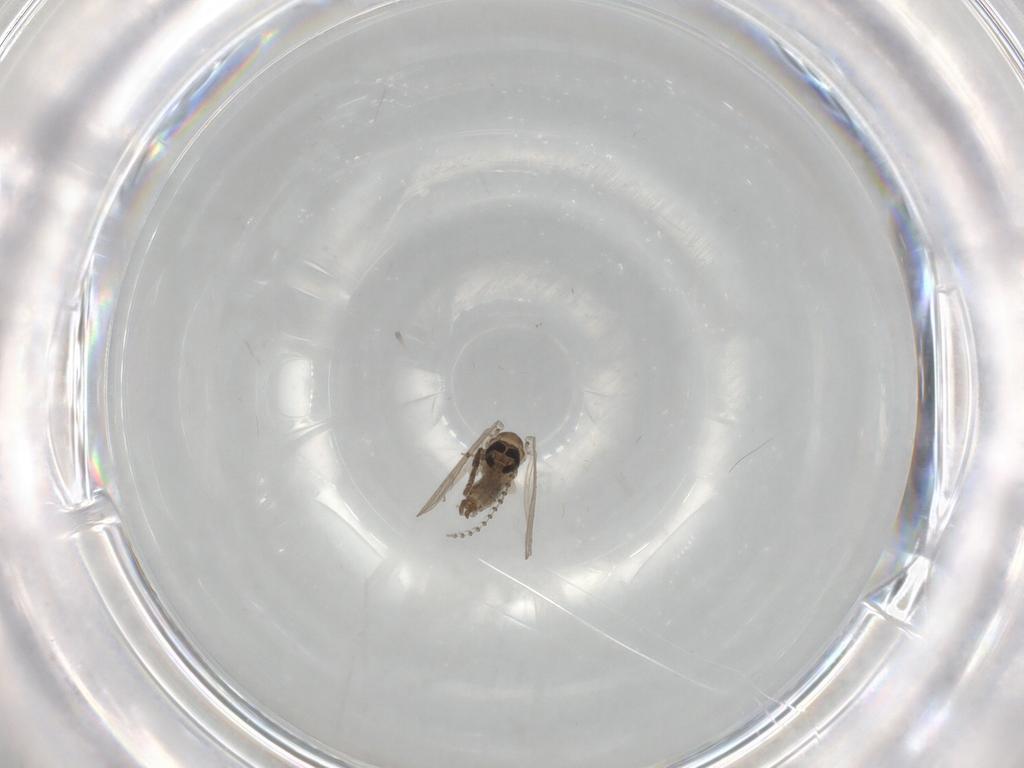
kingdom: Animalia
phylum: Arthropoda
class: Insecta
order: Diptera
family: Psychodidae
